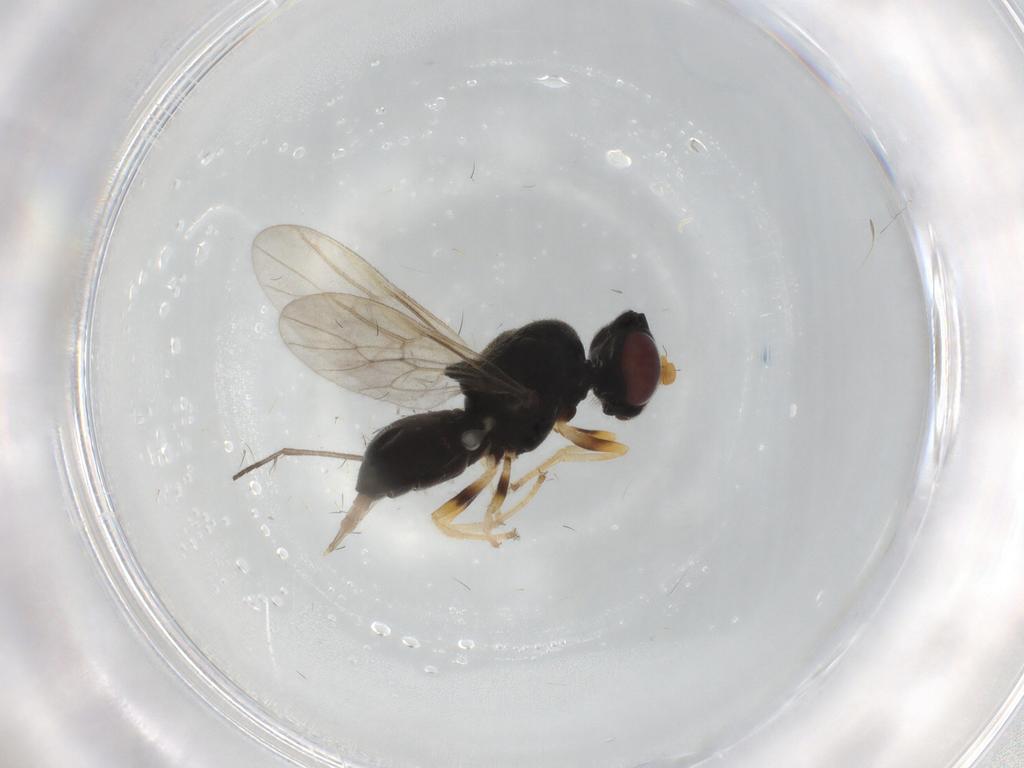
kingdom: Animalia
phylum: Arthropoda
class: Insecta
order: Diptera
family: Stratiomyidae
